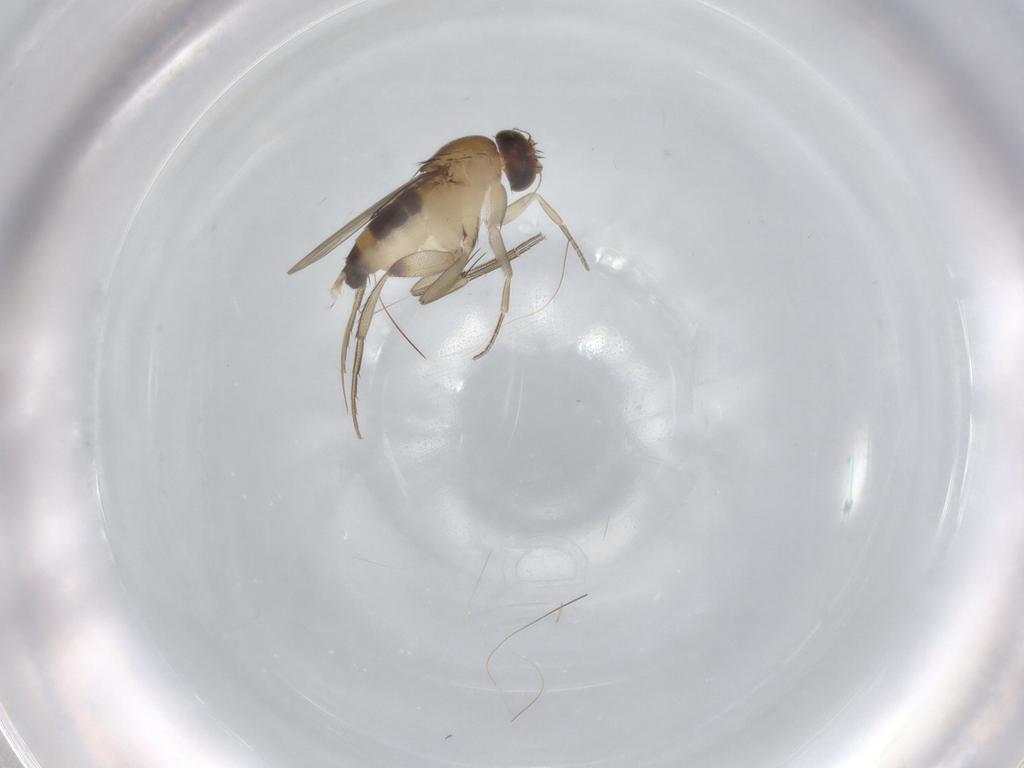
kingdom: Animalia
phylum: Arthropoda
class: Insecta
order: Diptera
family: Phoridae
